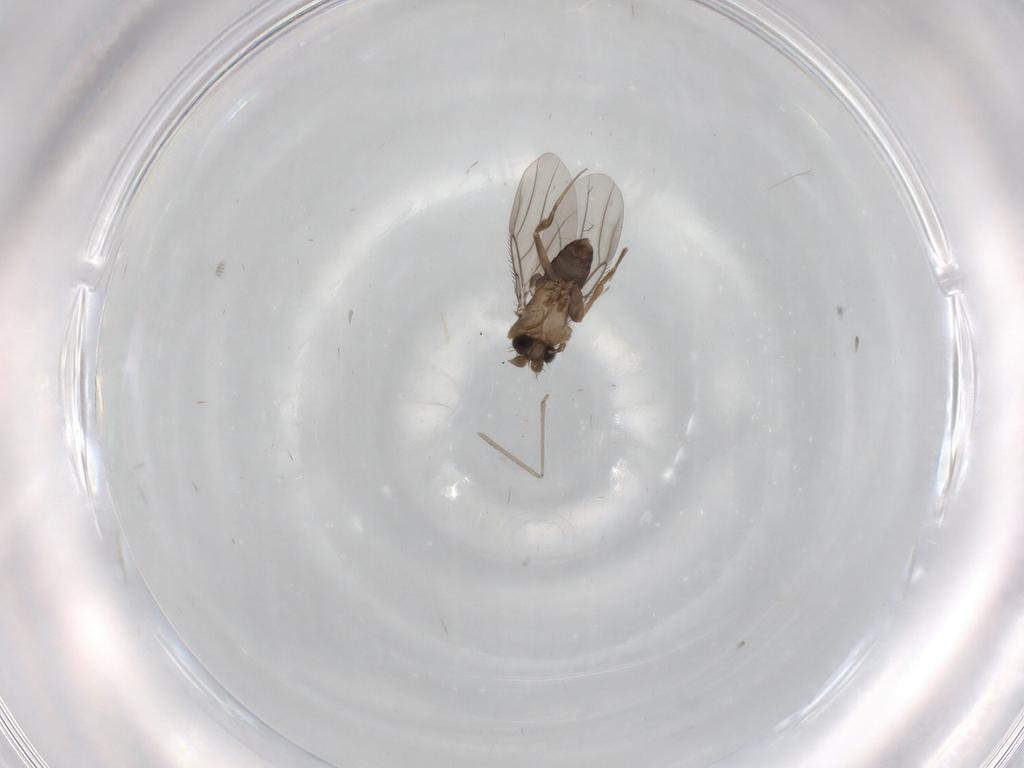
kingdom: Animalia
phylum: Arthropoda
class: Insecta
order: Diptera
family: Phoridae
